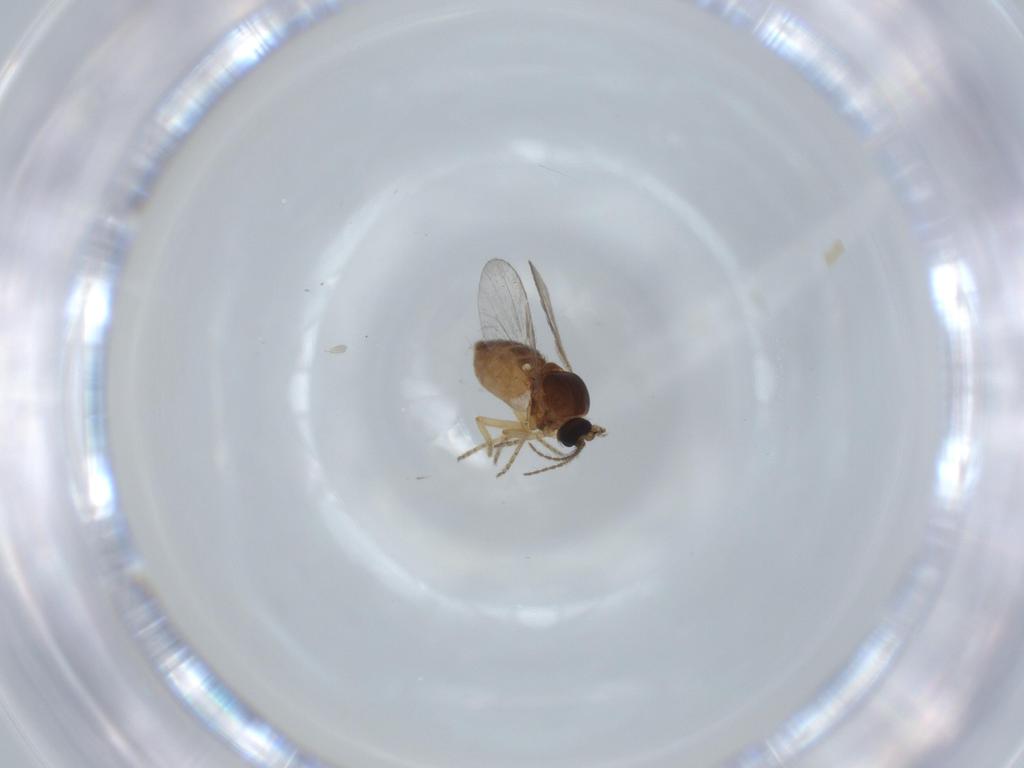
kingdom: Animalia
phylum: Arthropoda
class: Insecta
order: Diptera
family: Ceratopogonidae
